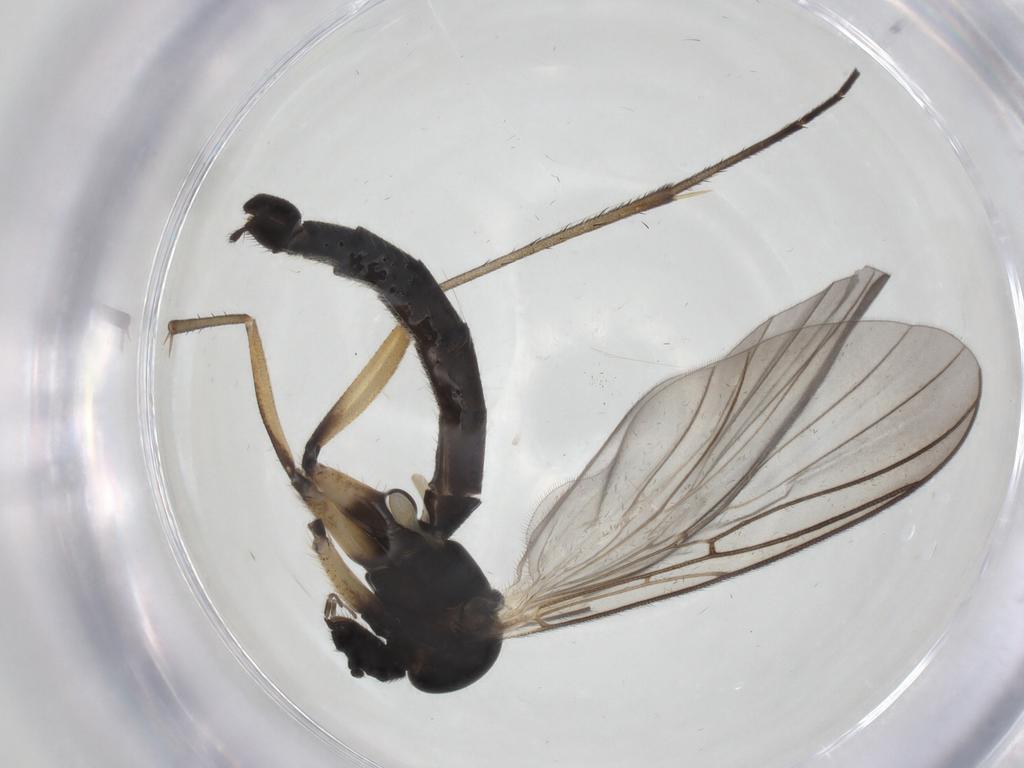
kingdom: Animalia
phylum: Arthropoda
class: Insecta
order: Diptera
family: Mycetophilidae
